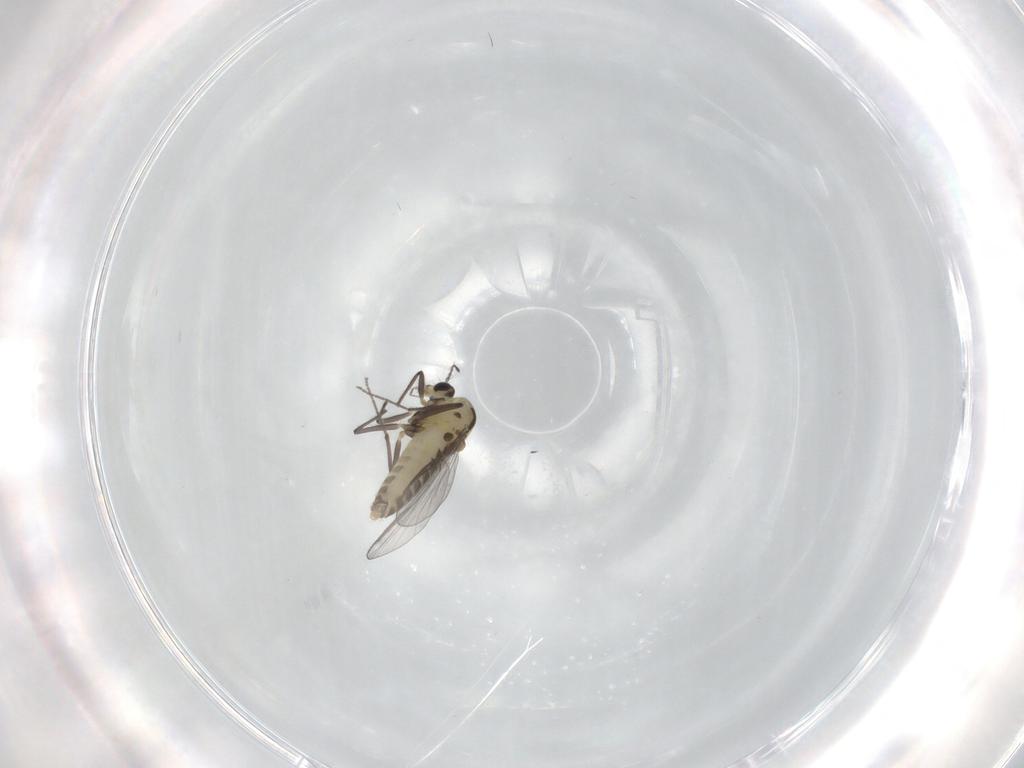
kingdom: Animalia
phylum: Arthropoda
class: Insecta
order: Diptera
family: Chironomidae
